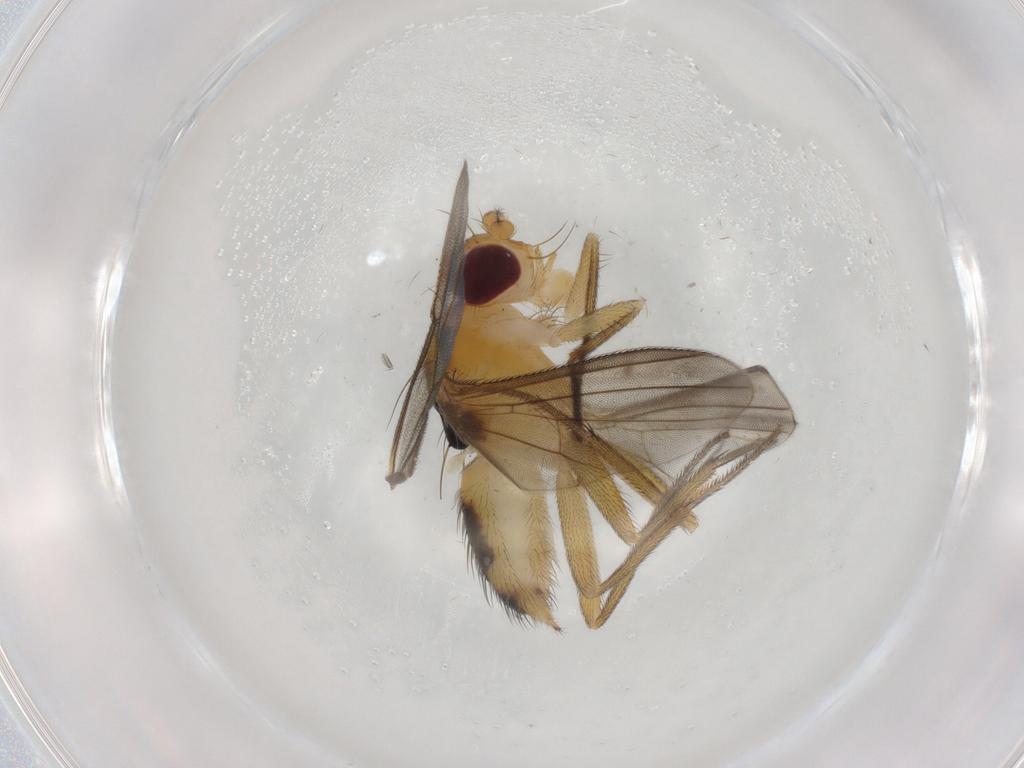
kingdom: Animalia
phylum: Arthropoda
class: Insecta
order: Diptera
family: Clusiidae
